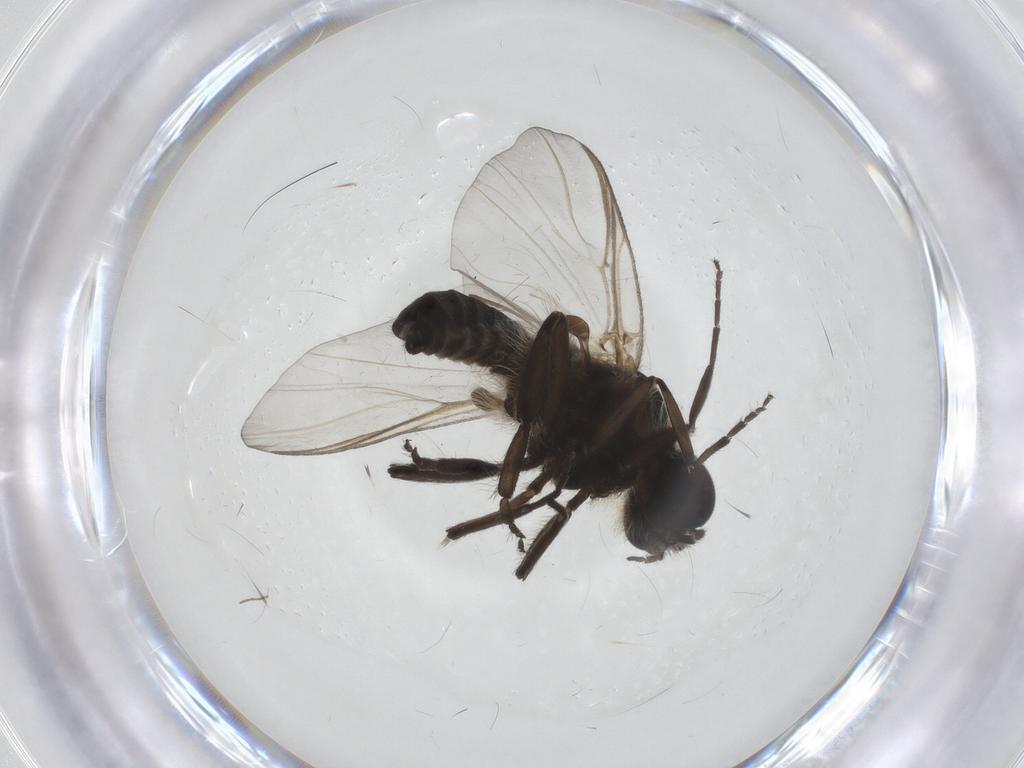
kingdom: Animalia
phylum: Arthropoda
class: Insecta
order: Diptera
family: Simuliidae
